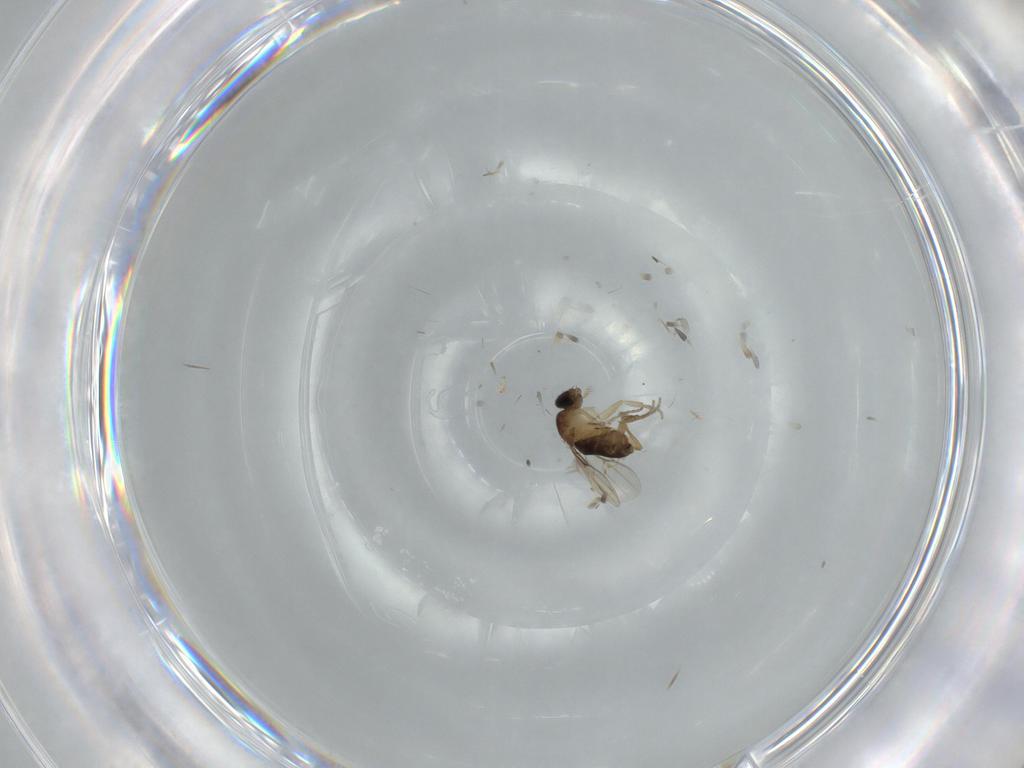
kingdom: Animalia
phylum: Arthropoda
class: Insecta
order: Diptera
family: Phoridae
